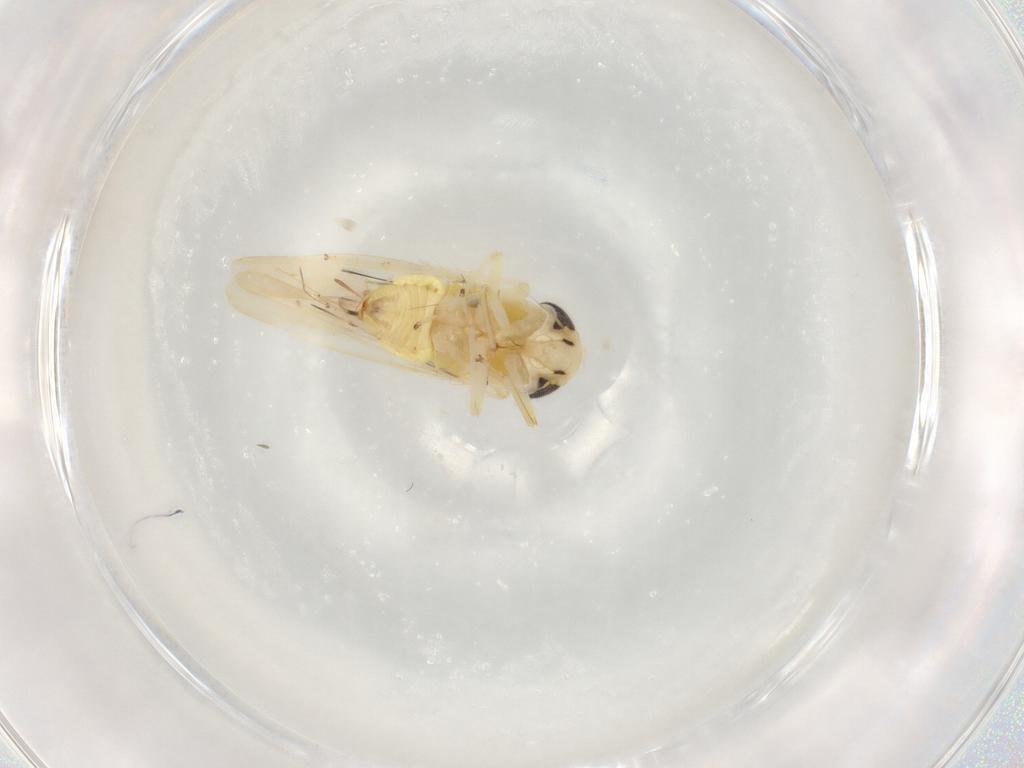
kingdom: Animalia
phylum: Arthropoda
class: Insecta
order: Hemiptera
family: Cicadellidae
